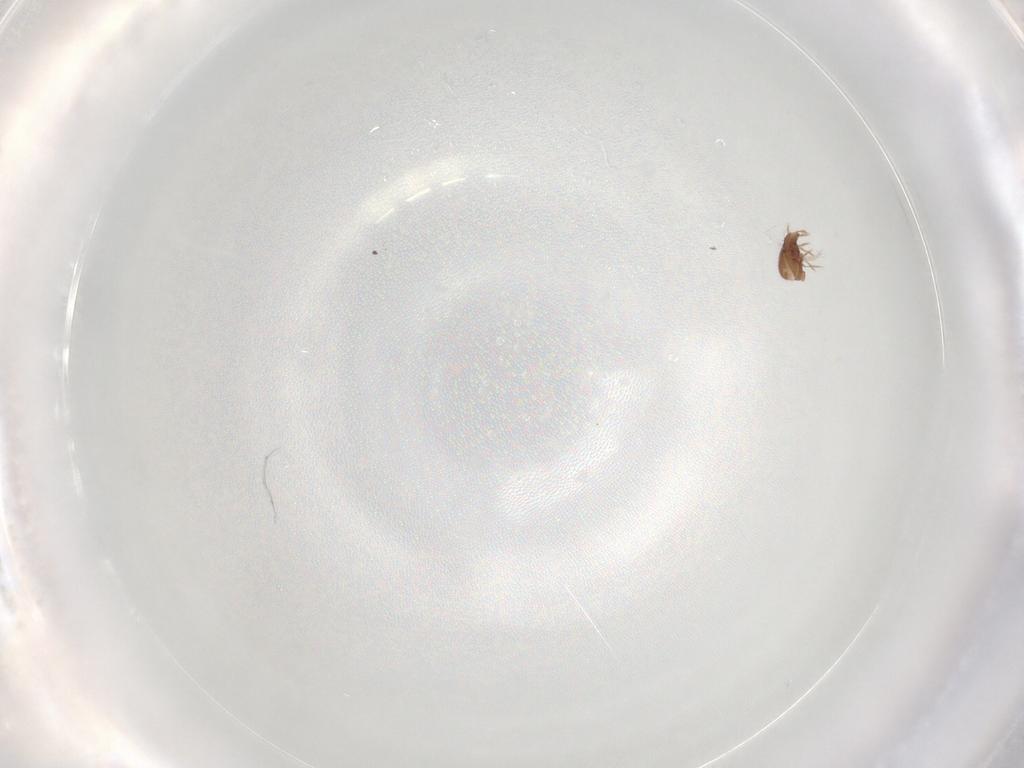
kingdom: Animalia
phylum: Arthropoda
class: Arachnida
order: Sarcoptiformes
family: Oribatulidae
